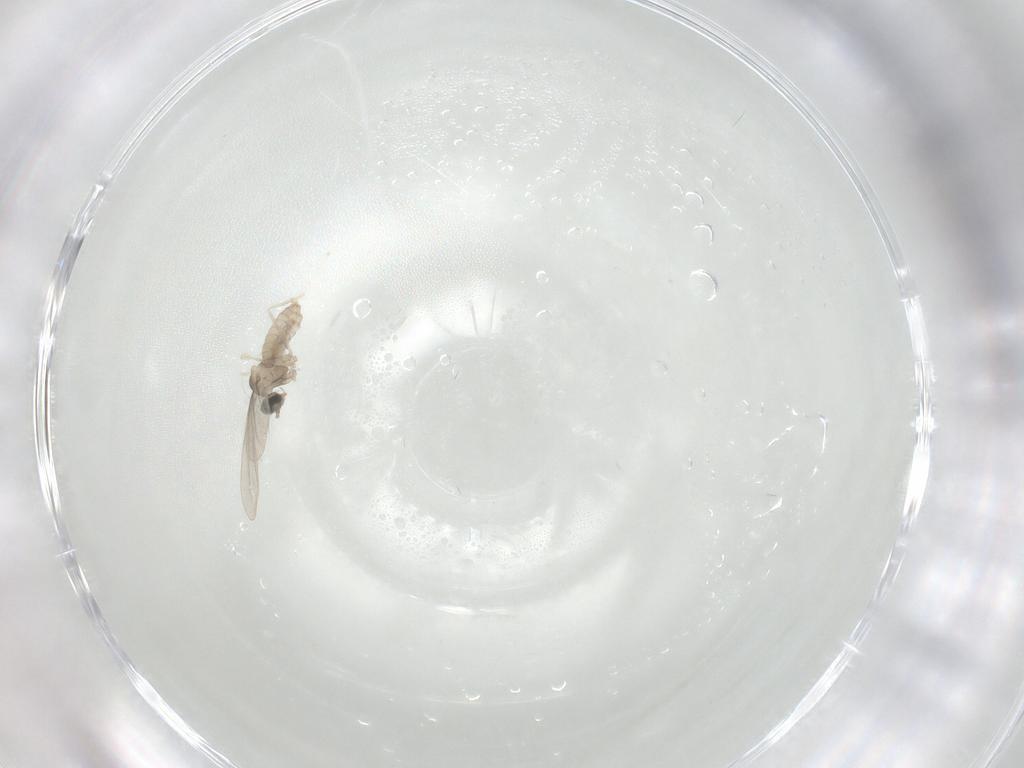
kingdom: Animalia
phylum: Arthropoda
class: Insecta
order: Diptera
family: Cecidomyiidae
